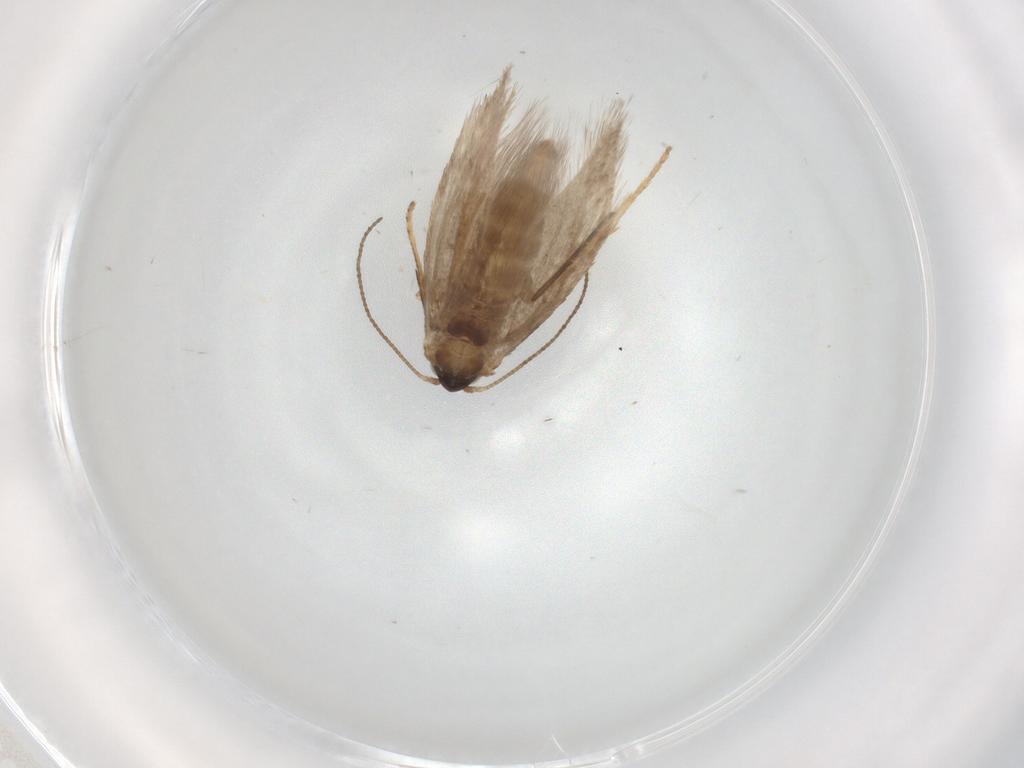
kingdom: Animalia
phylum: Arthropoda
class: Insecta
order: Lepidoptera
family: Nepticulidae
